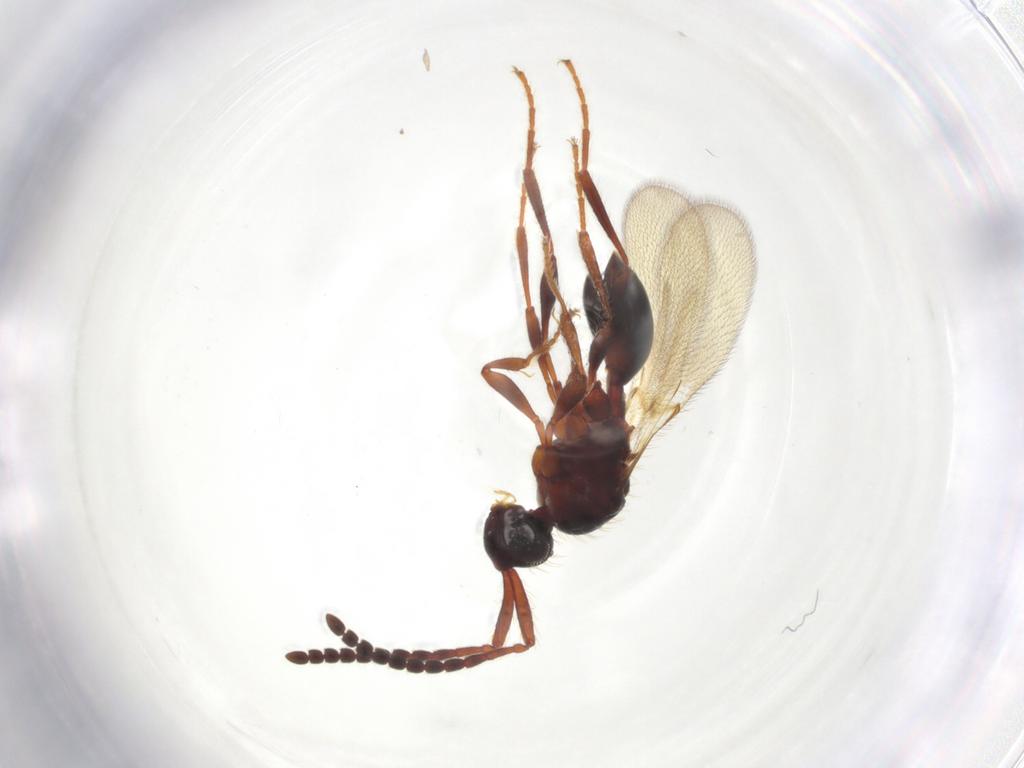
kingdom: Animalia
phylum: Arthropoda
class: Insecta
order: Hymenoptera
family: Diapriidae
